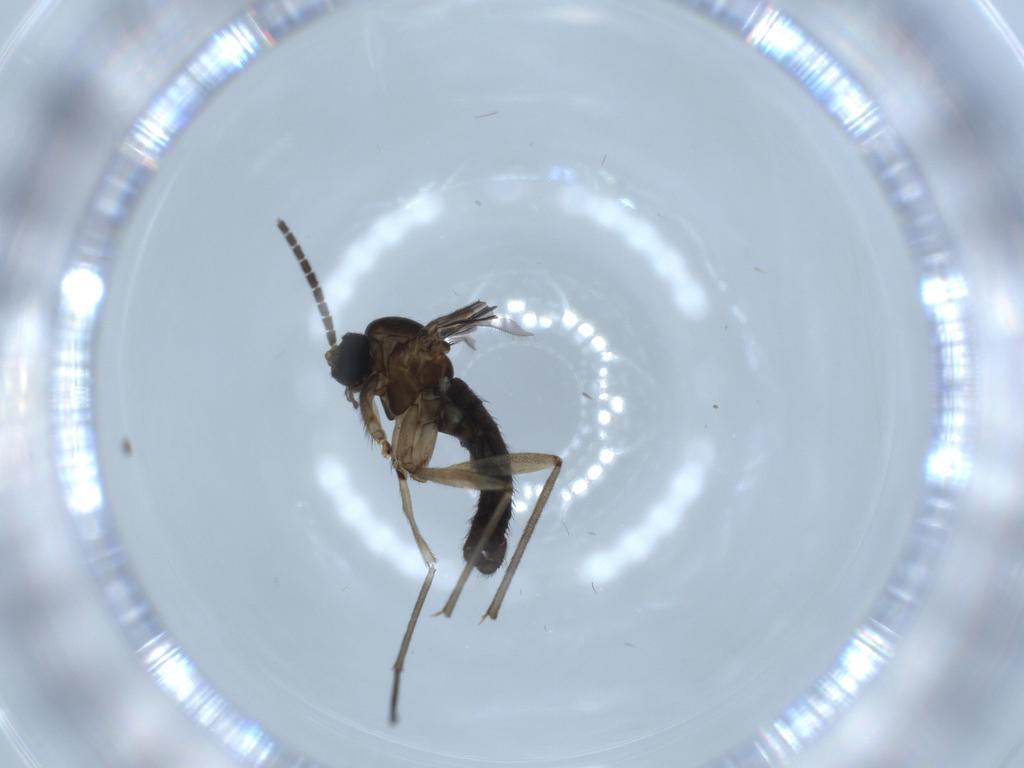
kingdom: Animalia
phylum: Arthropoda
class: Insecta
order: Diptera
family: Sciaridae
